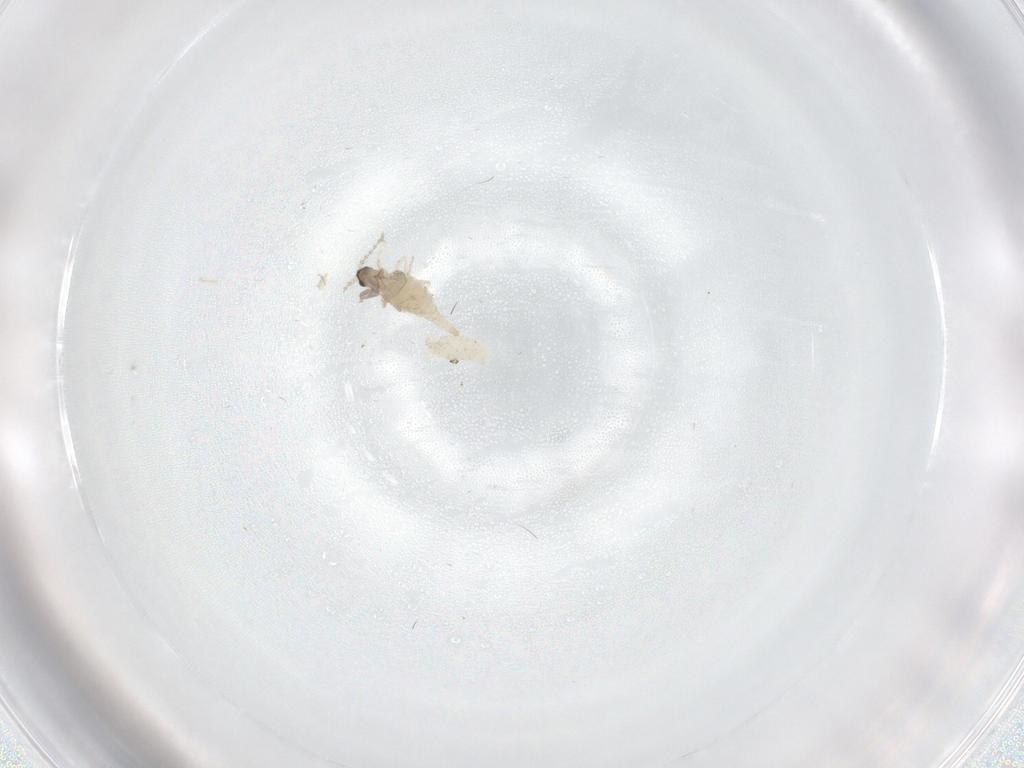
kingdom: Animalia
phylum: Arthropoda
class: Insecta
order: Diptera
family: Cecidomyiidae
